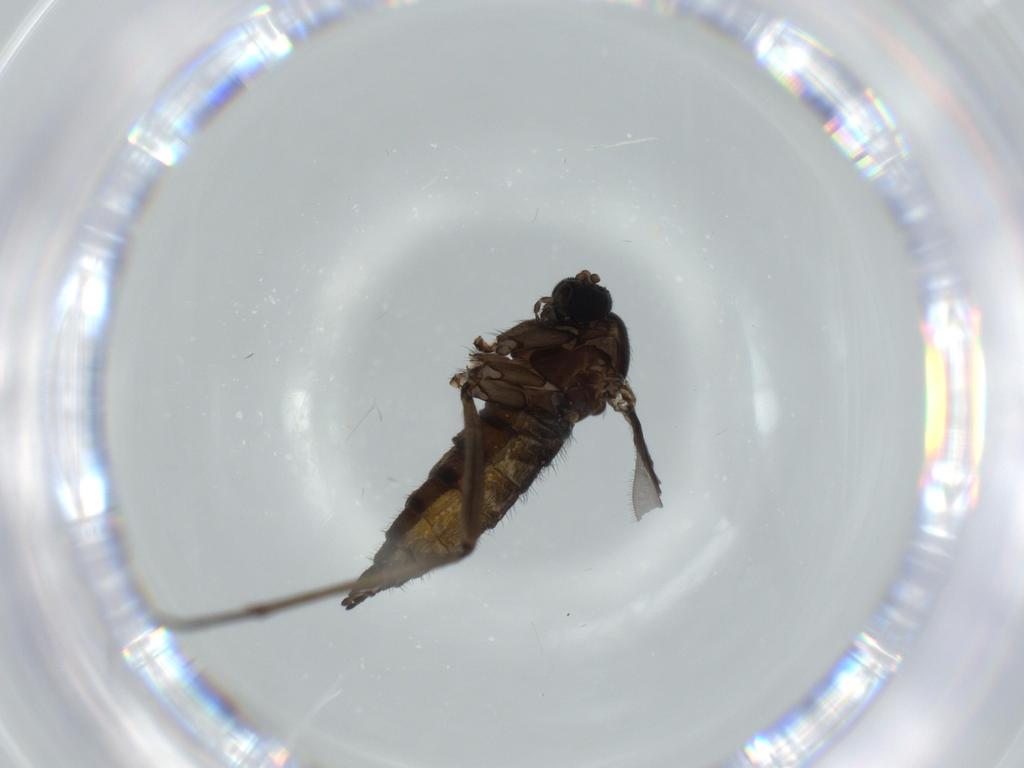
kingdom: Animalia
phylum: Arthropoda
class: Insecta
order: Diptera
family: Sciaridae
